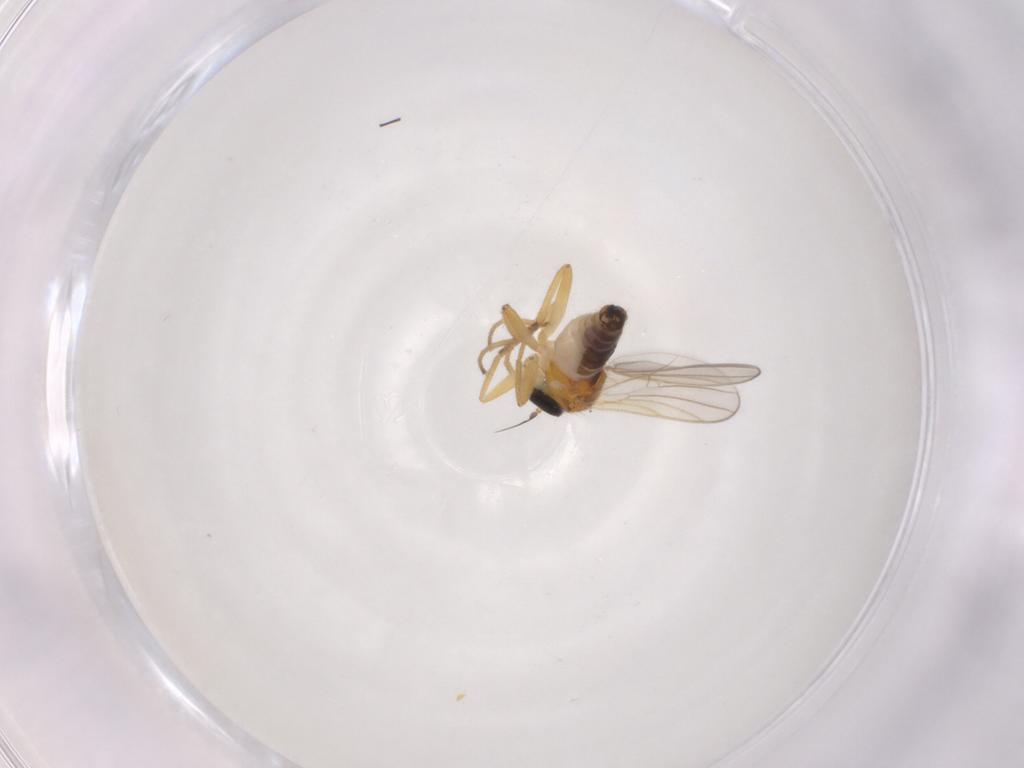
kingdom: Animalia
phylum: Arthropoda
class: Insecta
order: Diptera
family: Hybotidae
